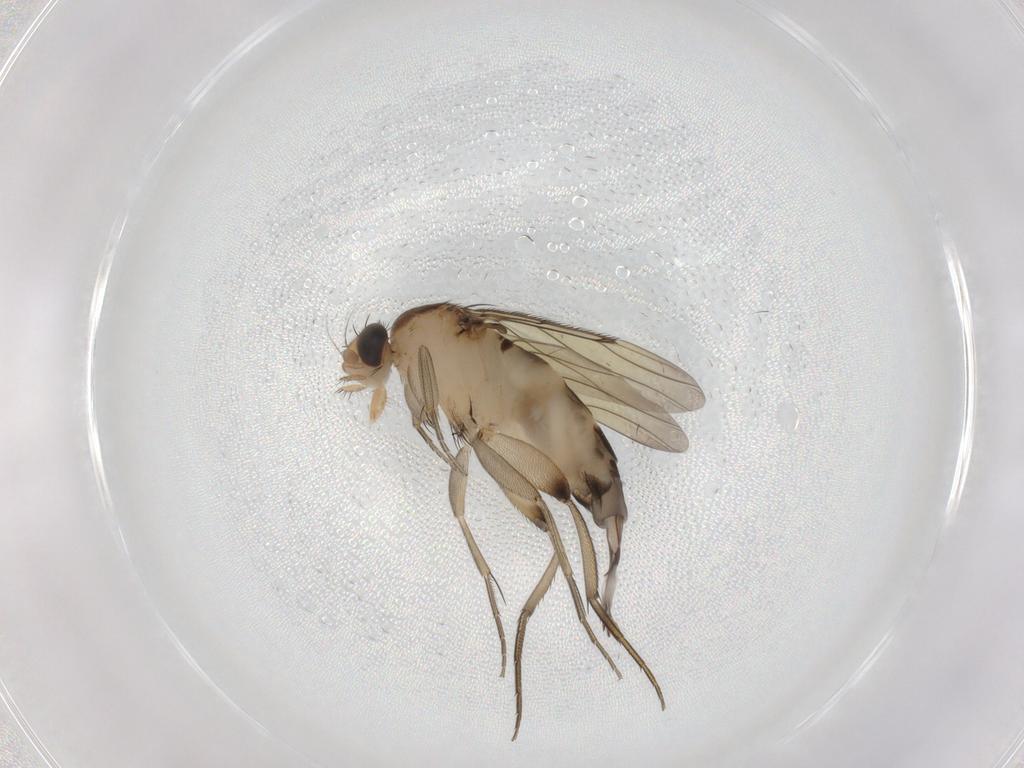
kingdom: Animalia
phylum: Arthropoda
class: Insecta
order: Diptera
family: Phoridae
